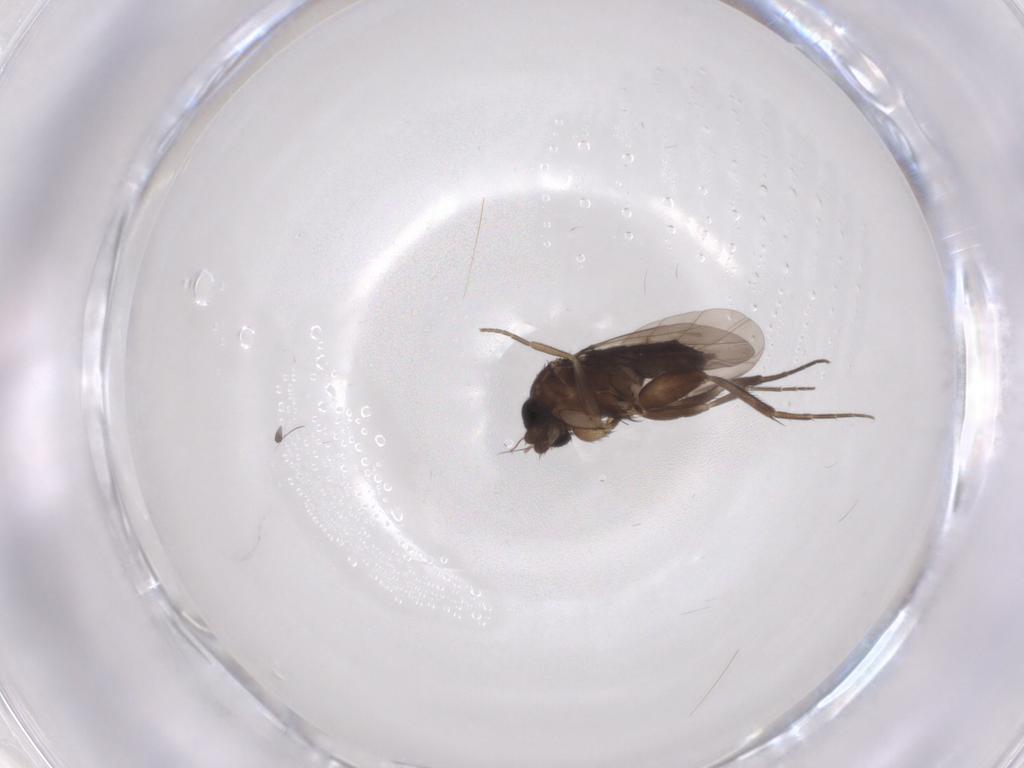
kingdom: Animalia
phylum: Arthropoda
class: Insecta
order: Diptera
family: Phoridae
